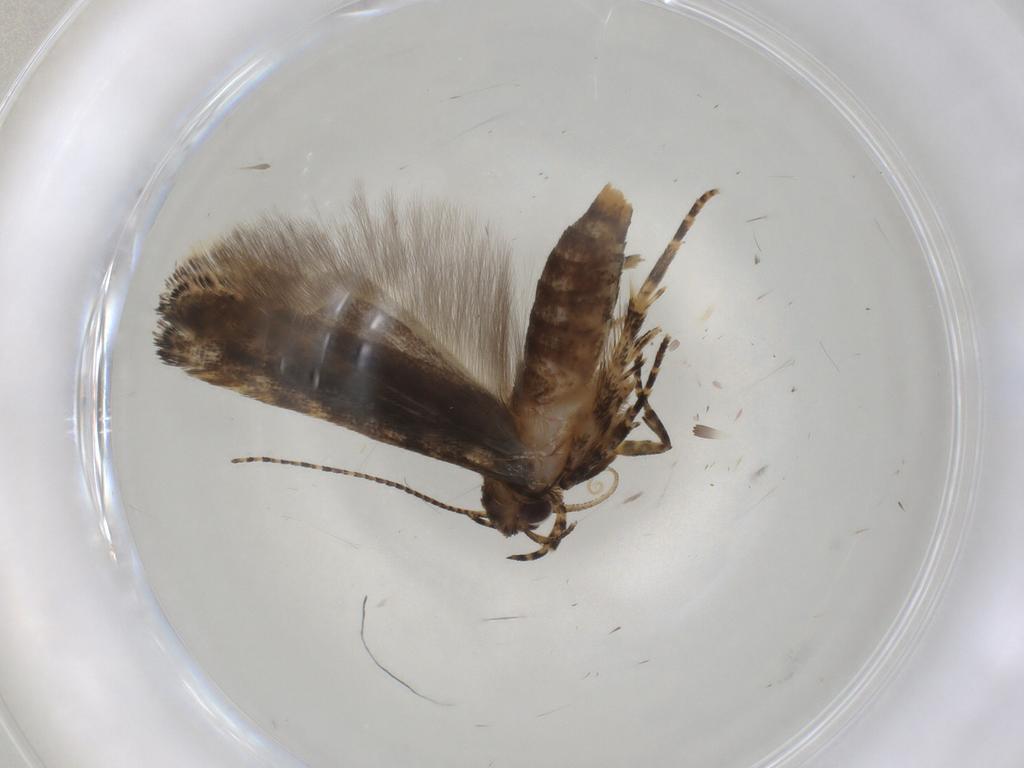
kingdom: Animalia
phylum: Arthropoda
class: Insecta
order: Lepidoptera
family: Gelechiidae
